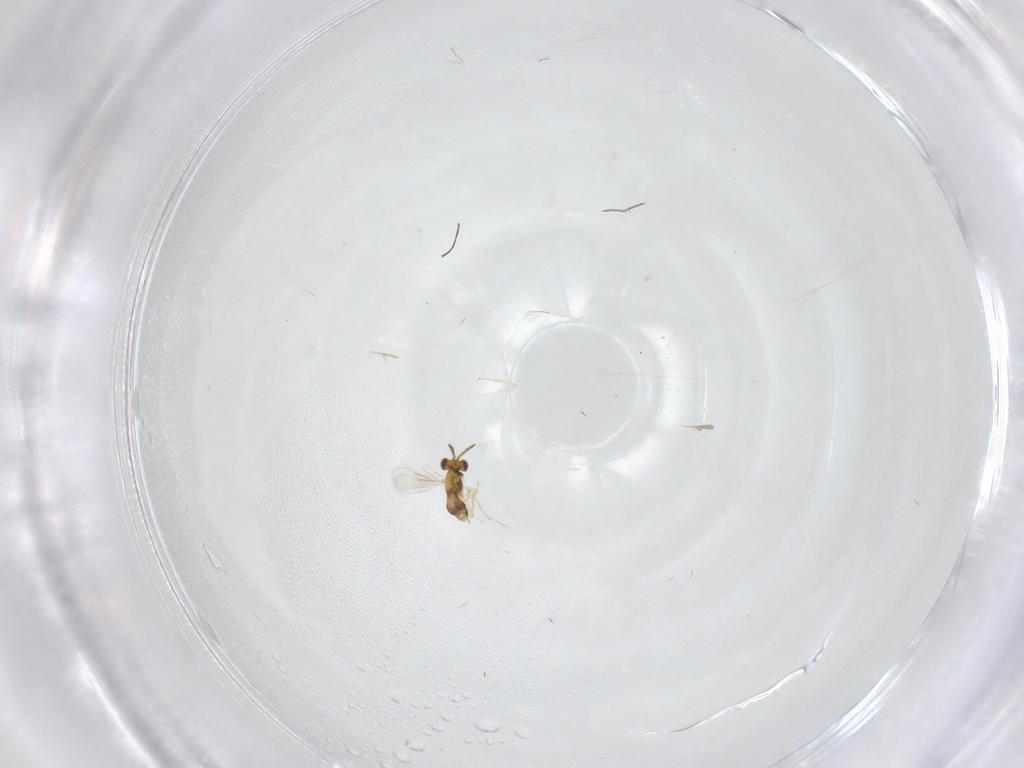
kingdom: Animalia
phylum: Arthropoda
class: Insecta
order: Hymenoptera
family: Aphelinidae
